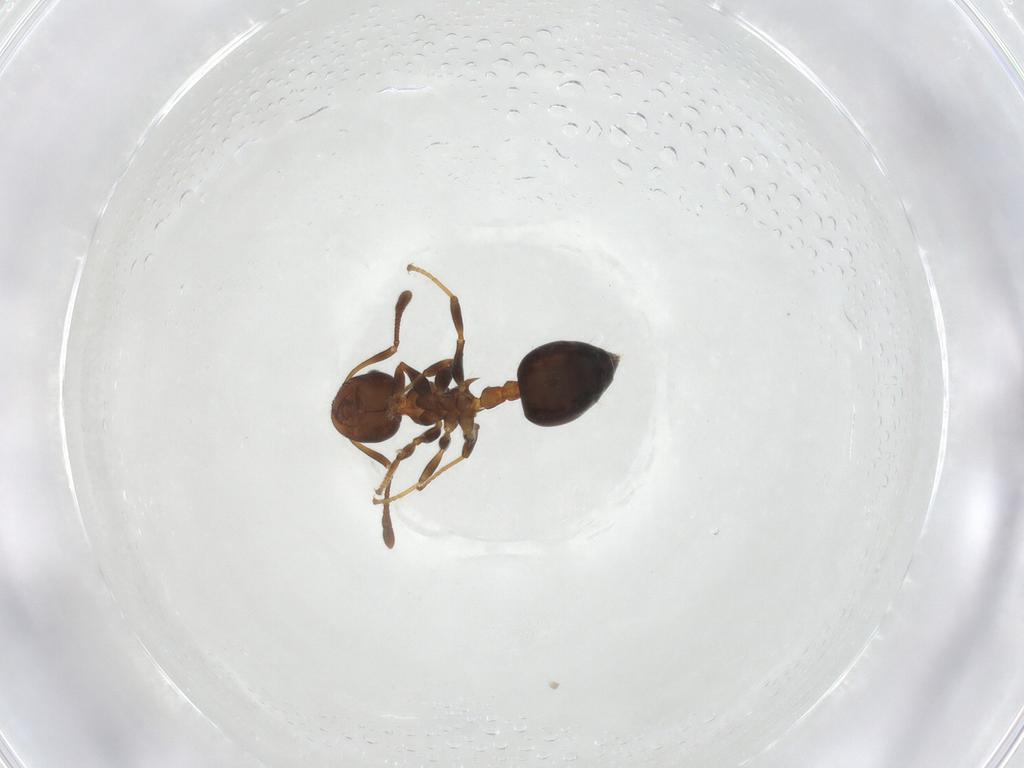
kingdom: Animalia
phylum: Arthropoda
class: Insecta
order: Hymenoptera
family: Formicidae
